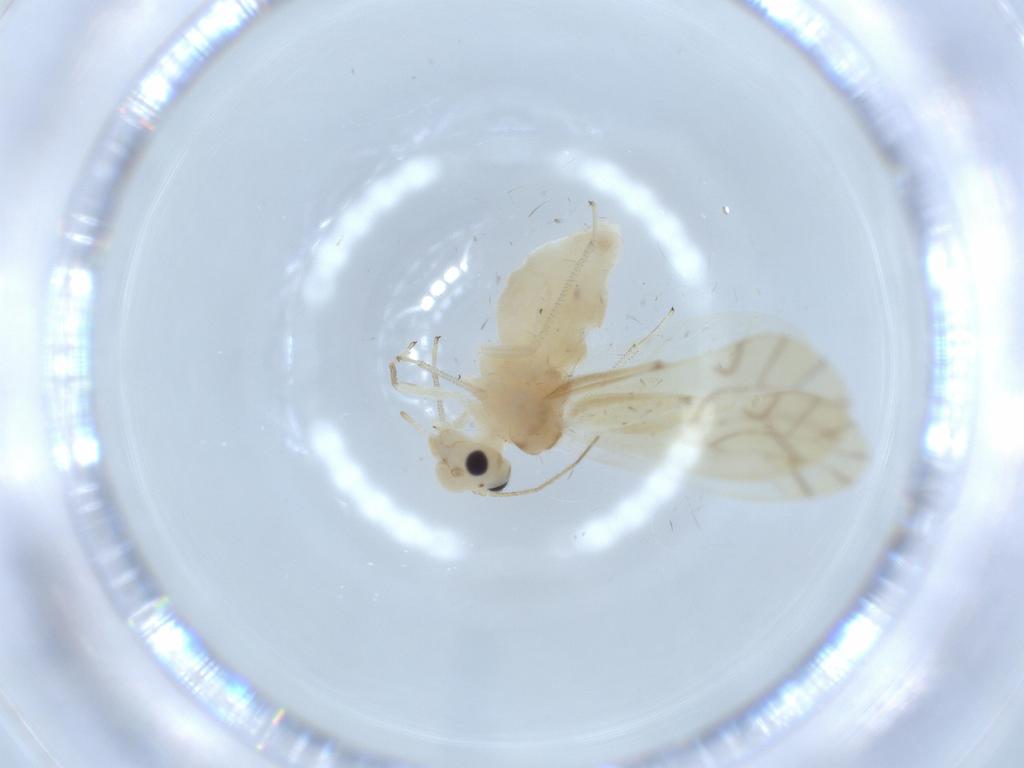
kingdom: Animalia
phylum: Arthropoda
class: Insecta
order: Psocodea
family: Caeciliusidae
